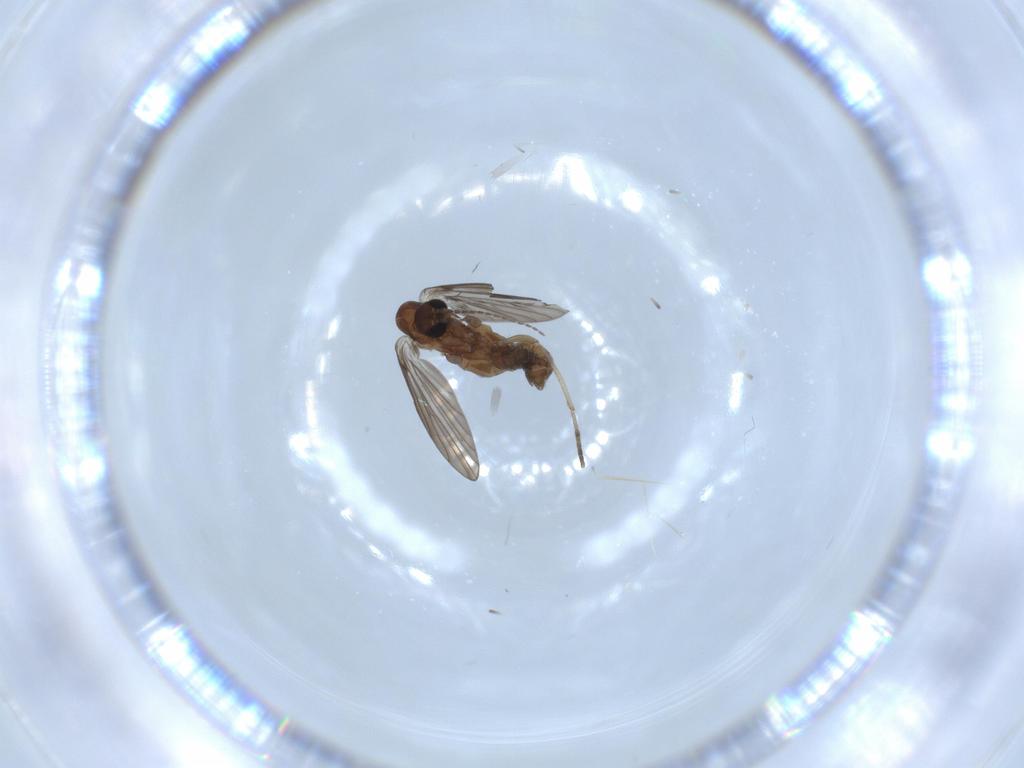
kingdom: Animalia
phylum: Arthropoda
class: Insecta
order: Diptera
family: Psychodidae
